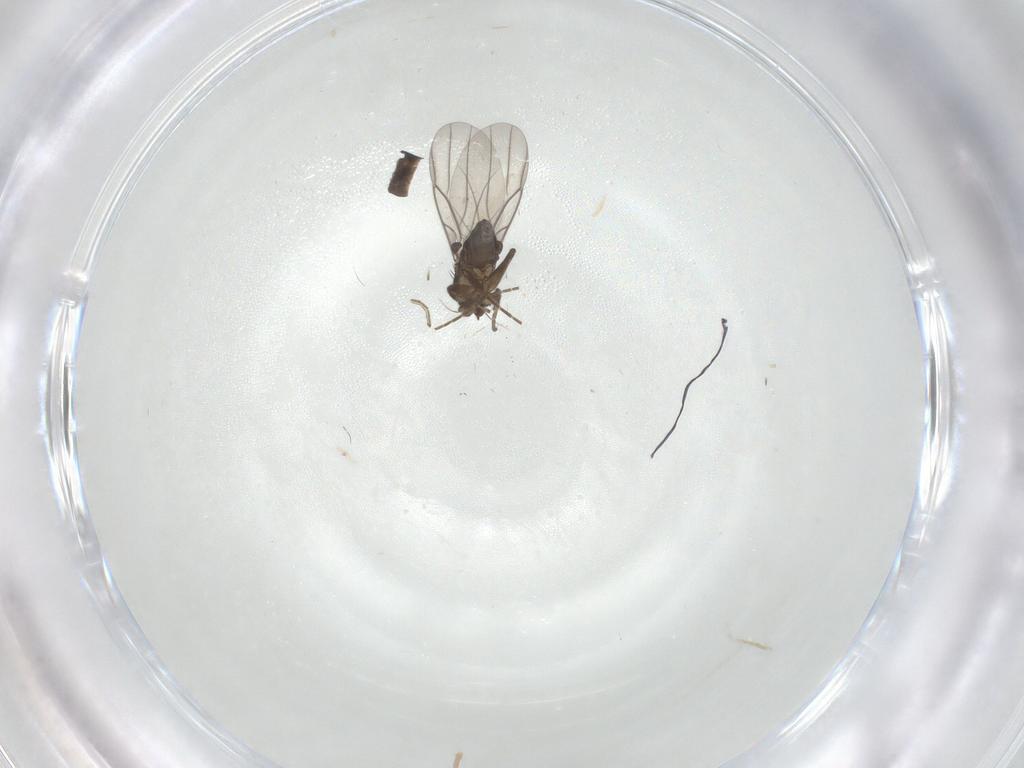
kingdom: Animalia
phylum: Arthropoda
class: Insecta
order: Diptera
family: Phoridae
